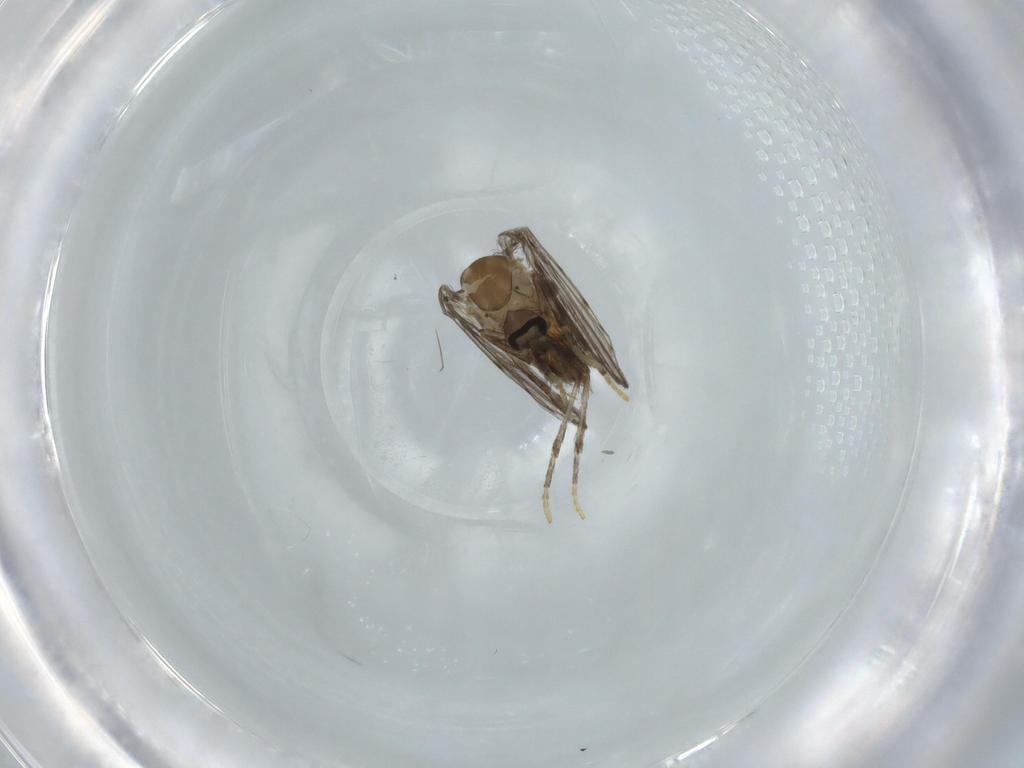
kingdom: Animalia
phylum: Arthropoda
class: Insecta
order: Diptera
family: Psychodidae
